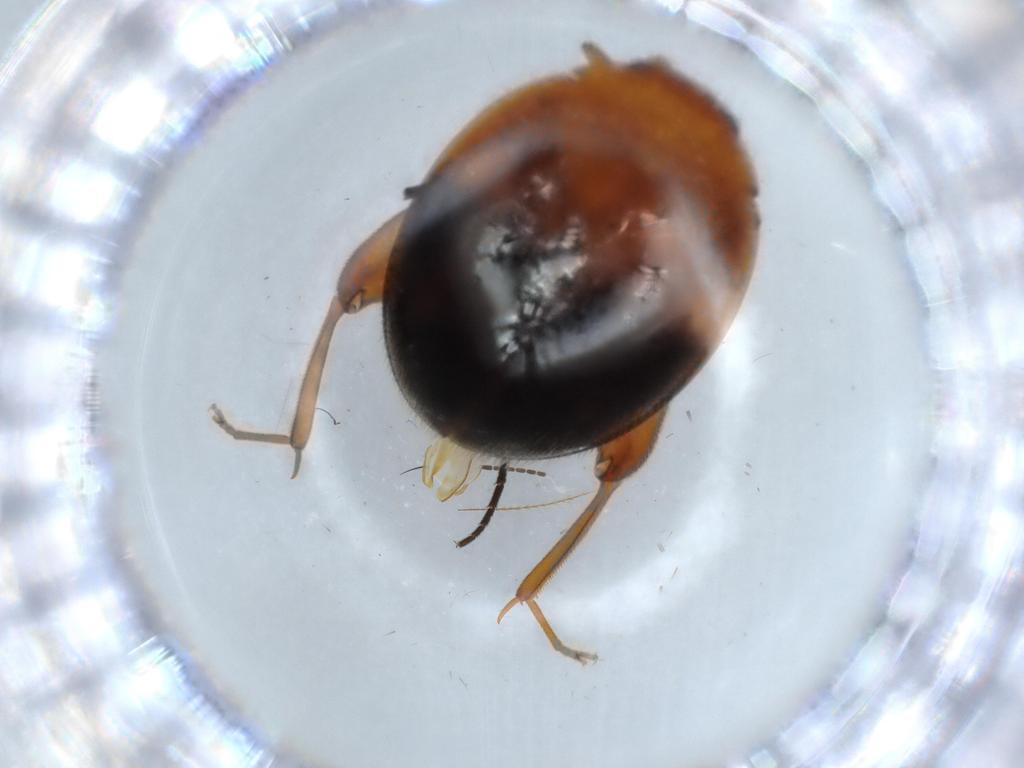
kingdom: Animalia
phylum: Arthropoda
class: Insecta
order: Coleoptera
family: Scirtidae
